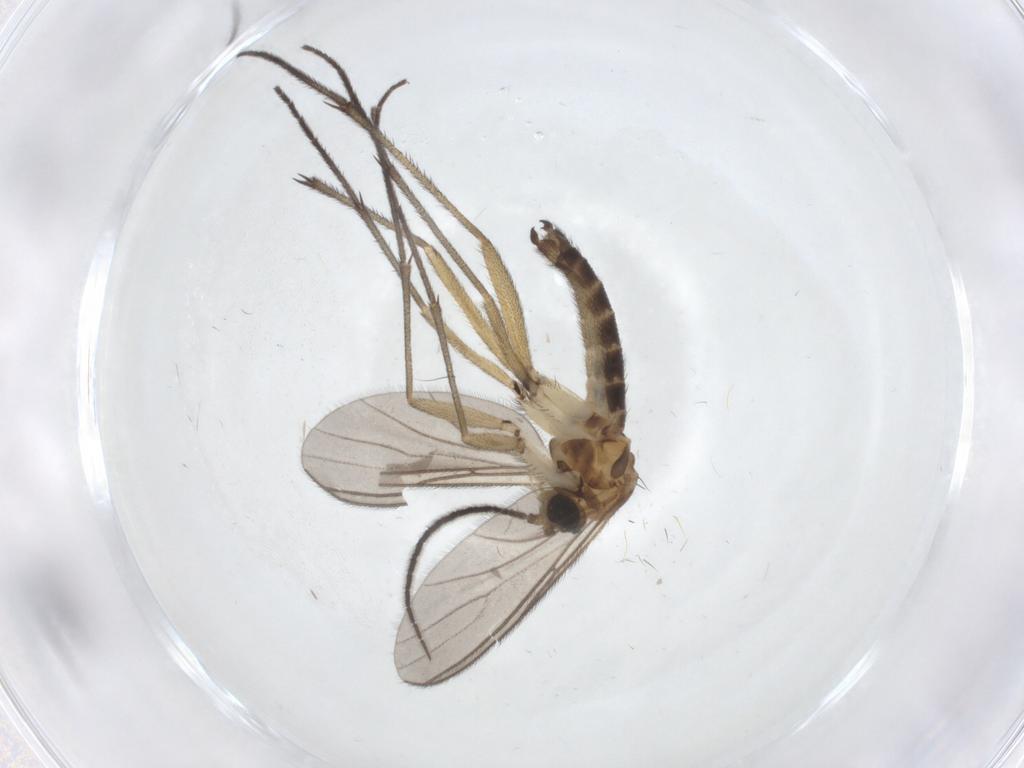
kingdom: Animalia
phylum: Arthropoda
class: Insecta
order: Diptera
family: Sciaridae
